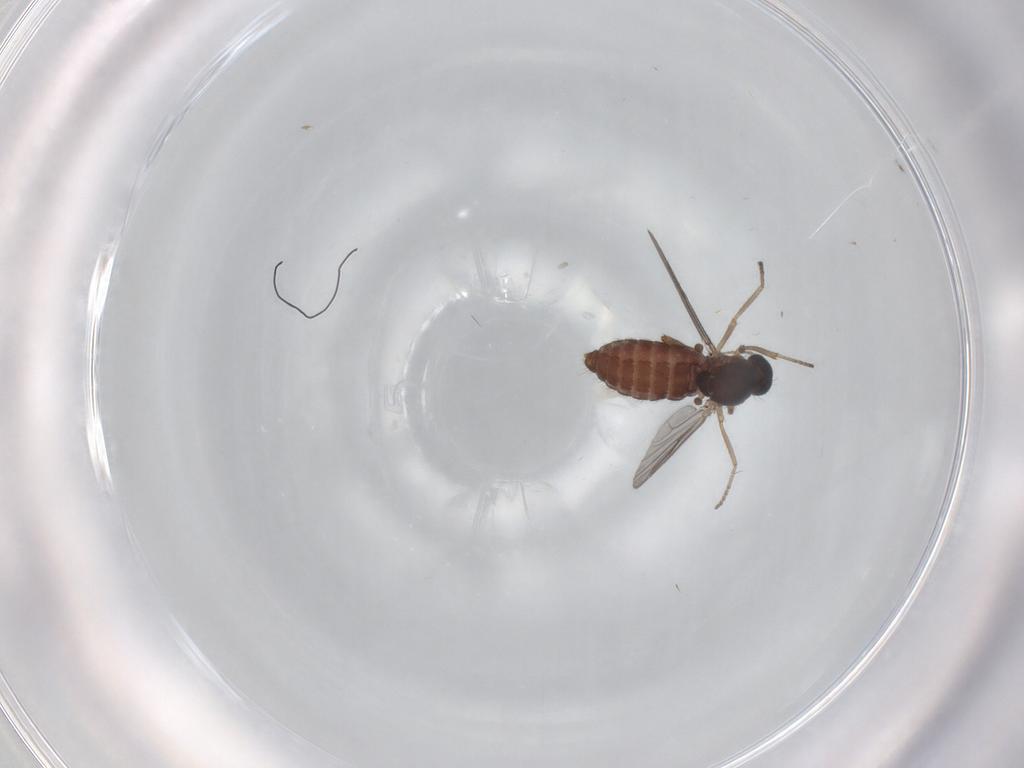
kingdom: Animalia
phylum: Arthropoda
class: Insecta
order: Diptera
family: Ceratopogonidae
